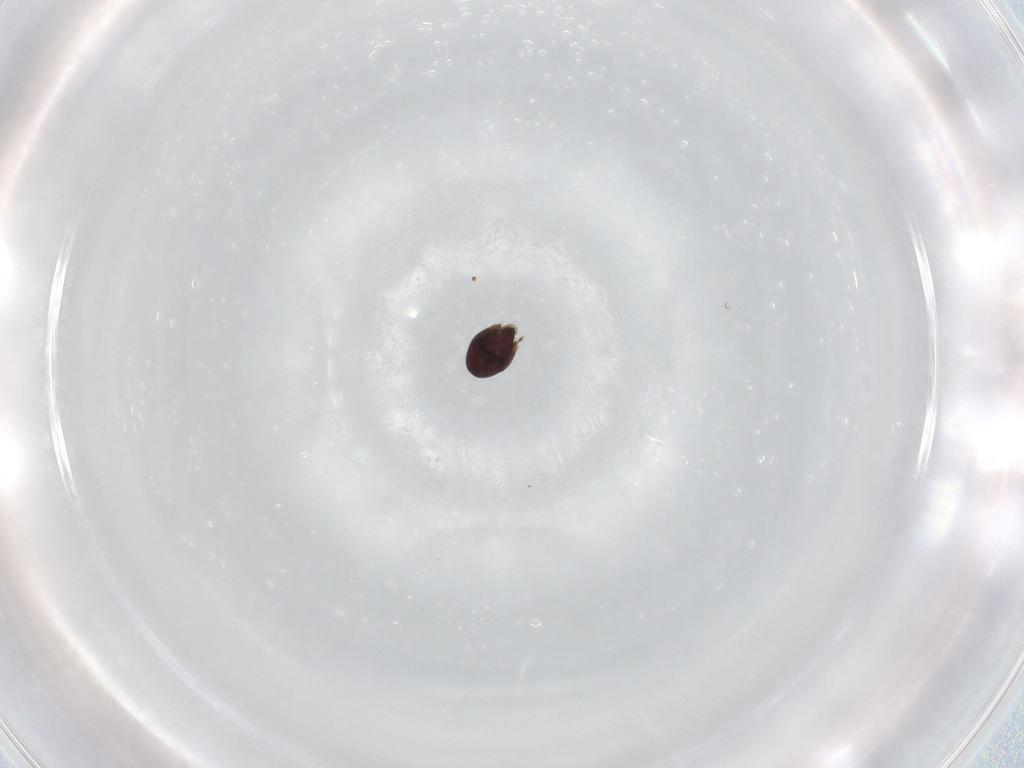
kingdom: Animalia
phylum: Arthropoda
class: Arachnida
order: Sarcoptiformes
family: Achipteriidae
